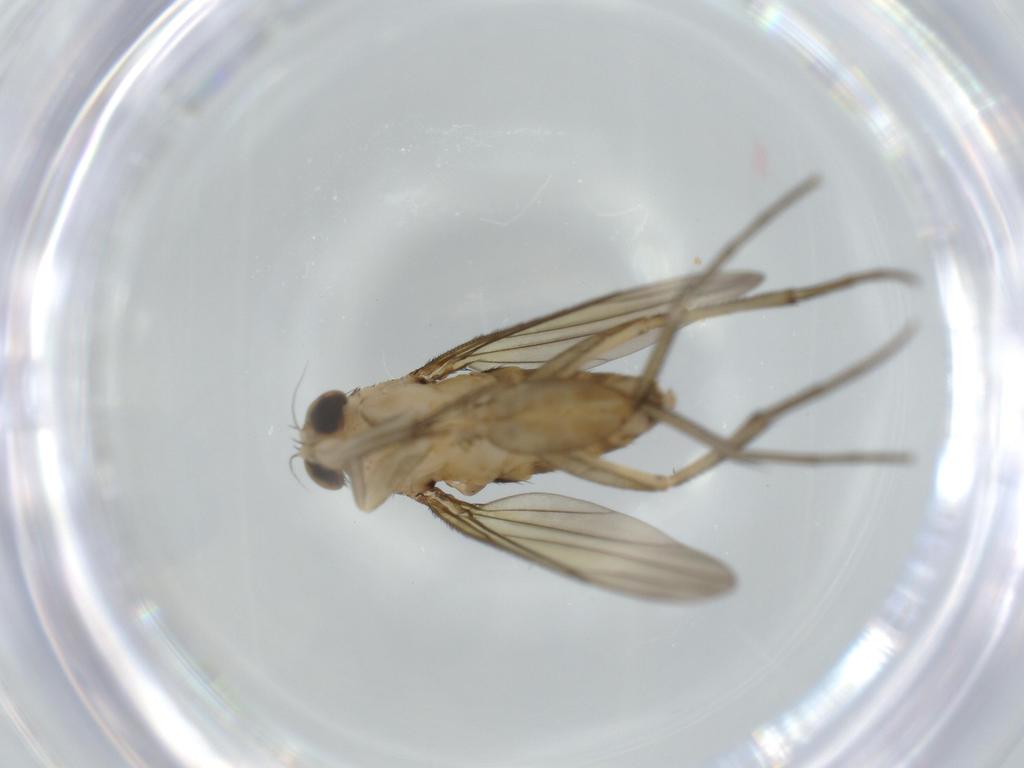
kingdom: Animalia
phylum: Arthropoda
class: Insecta
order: Diptera
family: Phoridae
